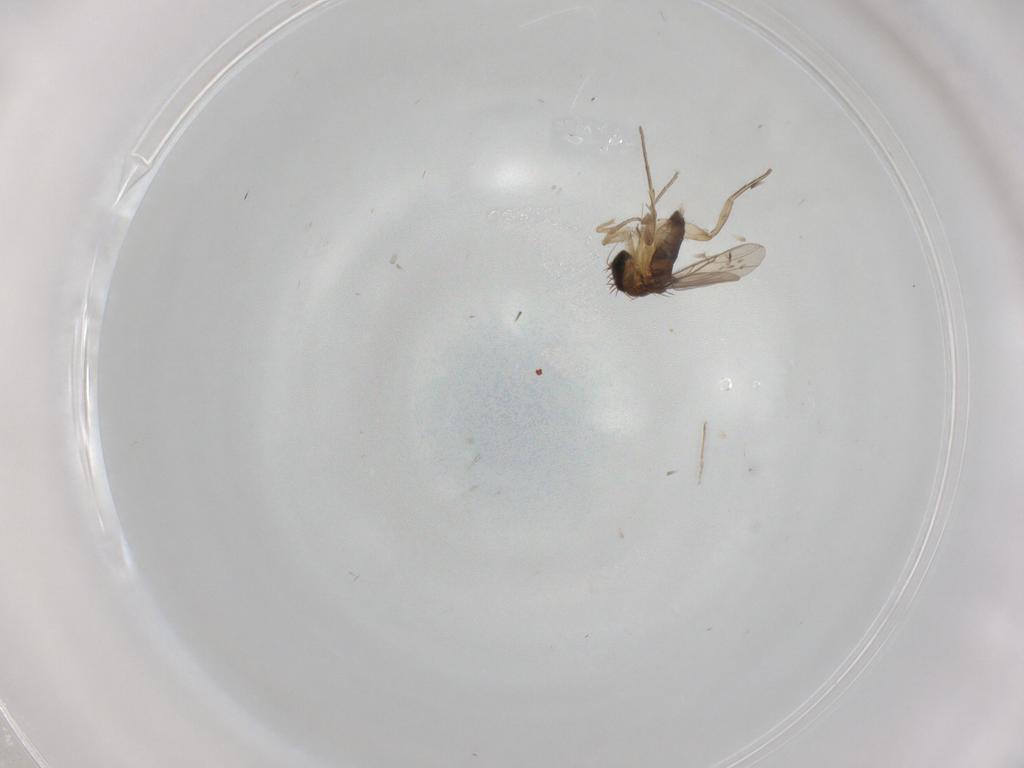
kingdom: Animalia
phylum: Arthropoda
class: Insecta
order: Diptera
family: Phoridae
